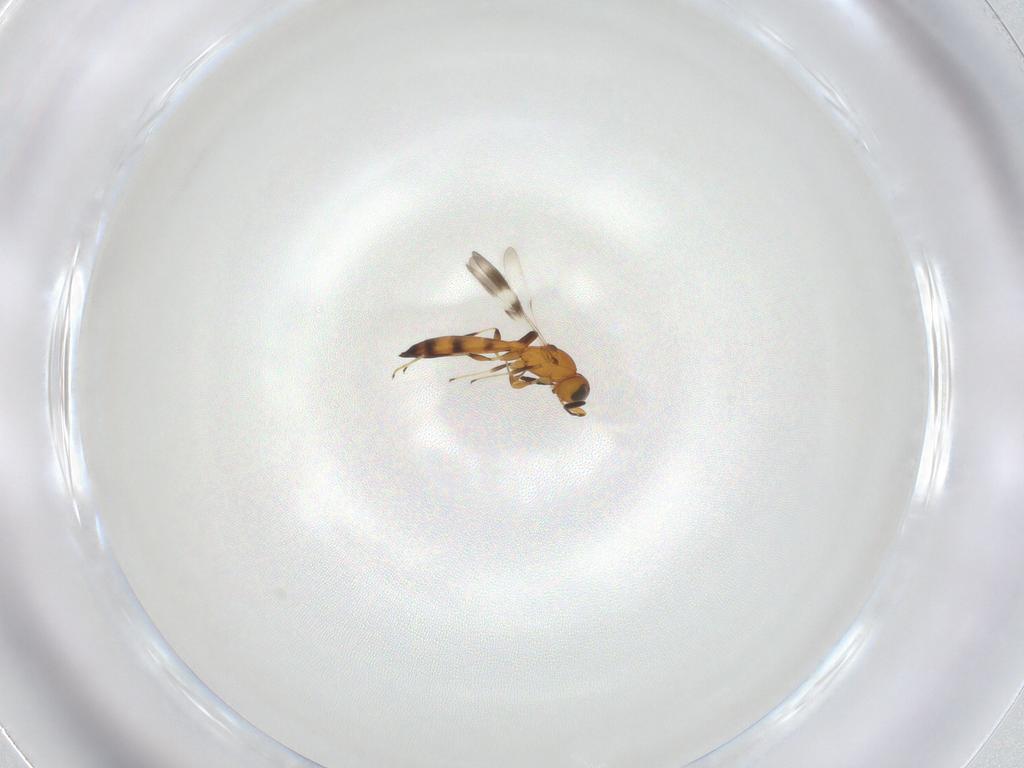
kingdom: Animalia
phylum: Arthropoda
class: Insecta
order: Hymenoptera
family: Scelionidae
